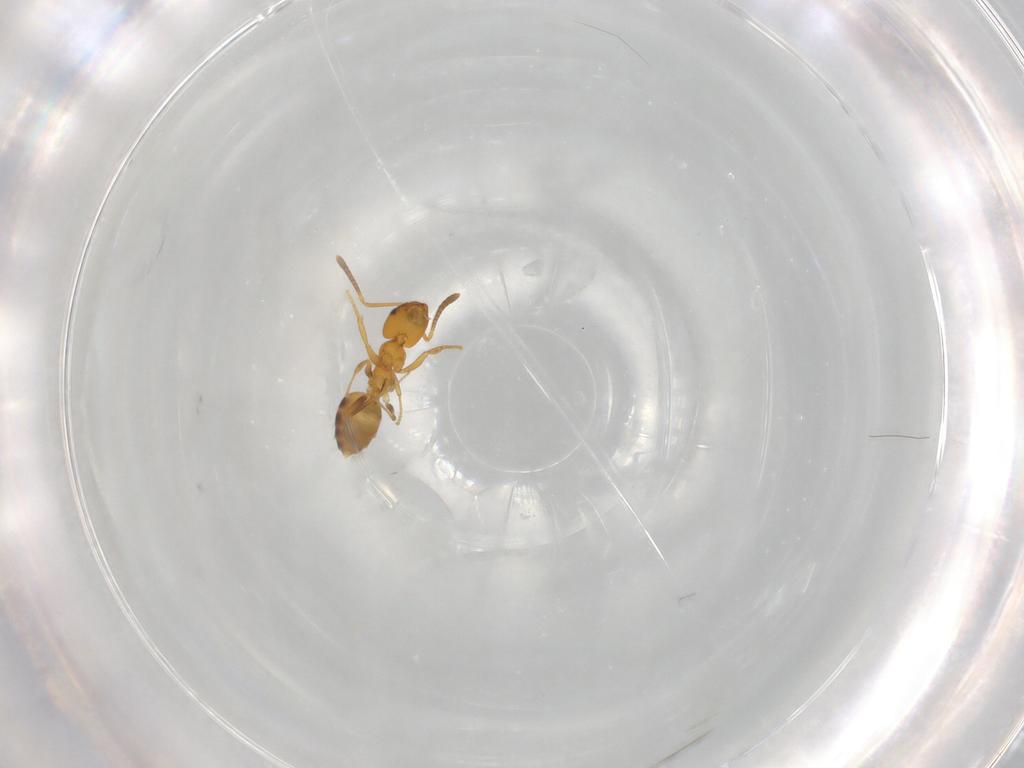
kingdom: Animalia
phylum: Arthropoda
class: Insecta
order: Hymenoptera
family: Formicidae
